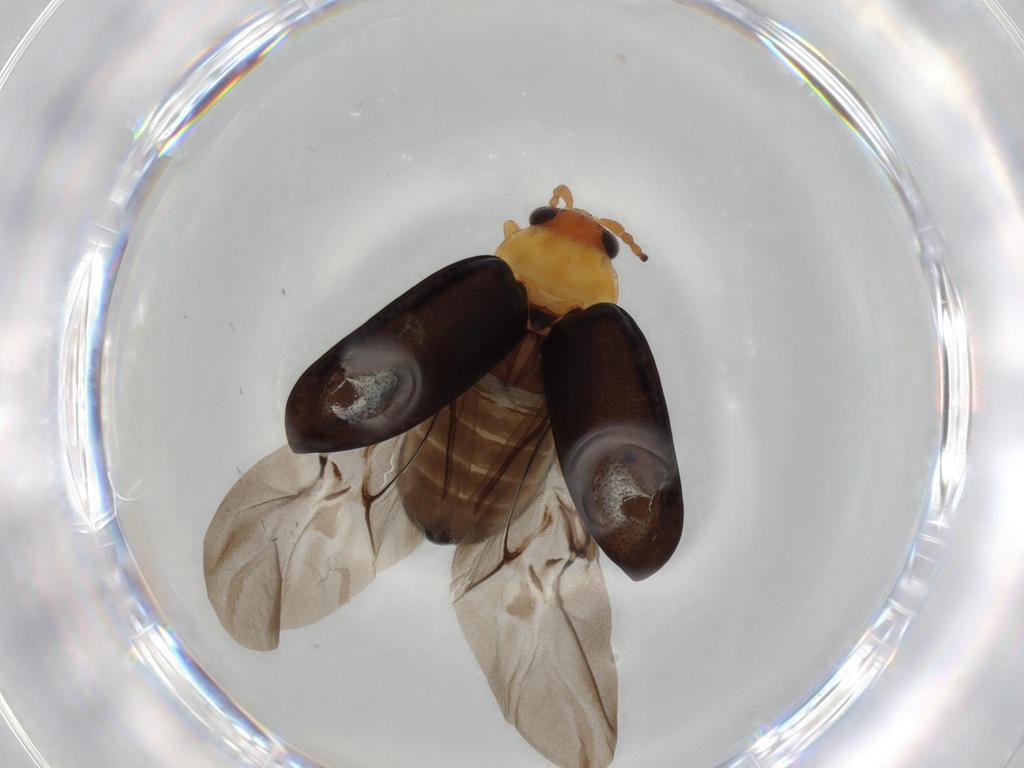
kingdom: Animalia
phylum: Arthropoda
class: Insecta
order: Coleoptera
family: Chrysomelidae
